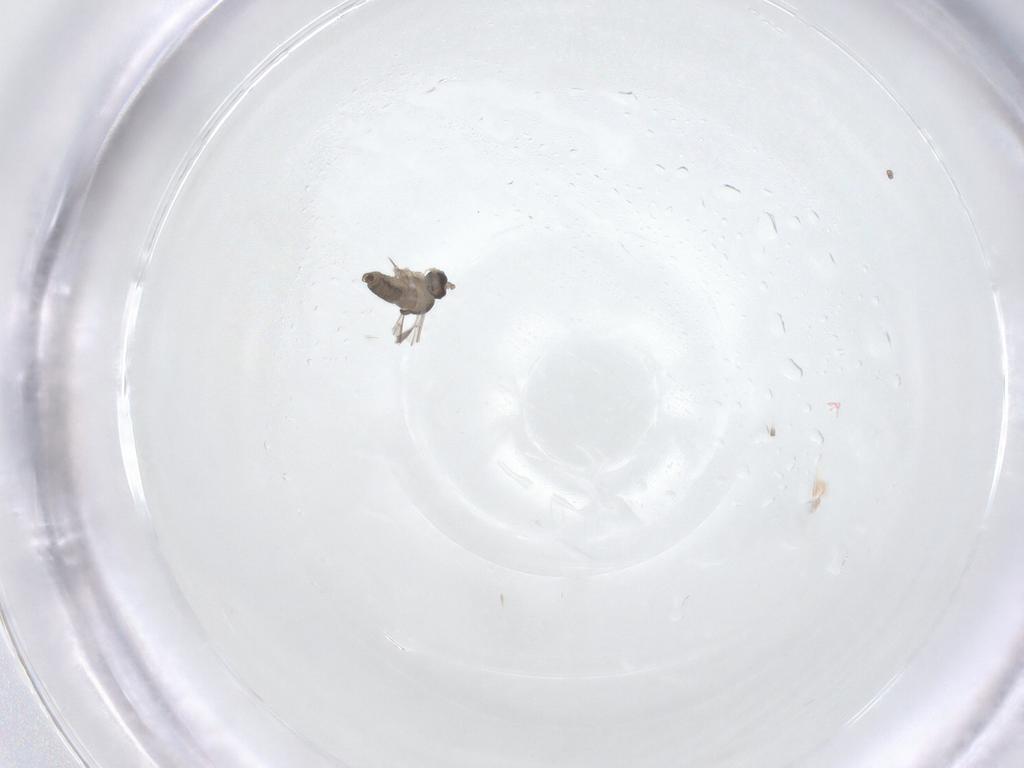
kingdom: Animalia
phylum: Arthropoda
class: Insecta
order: Diptera
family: Cecidomyiidae
